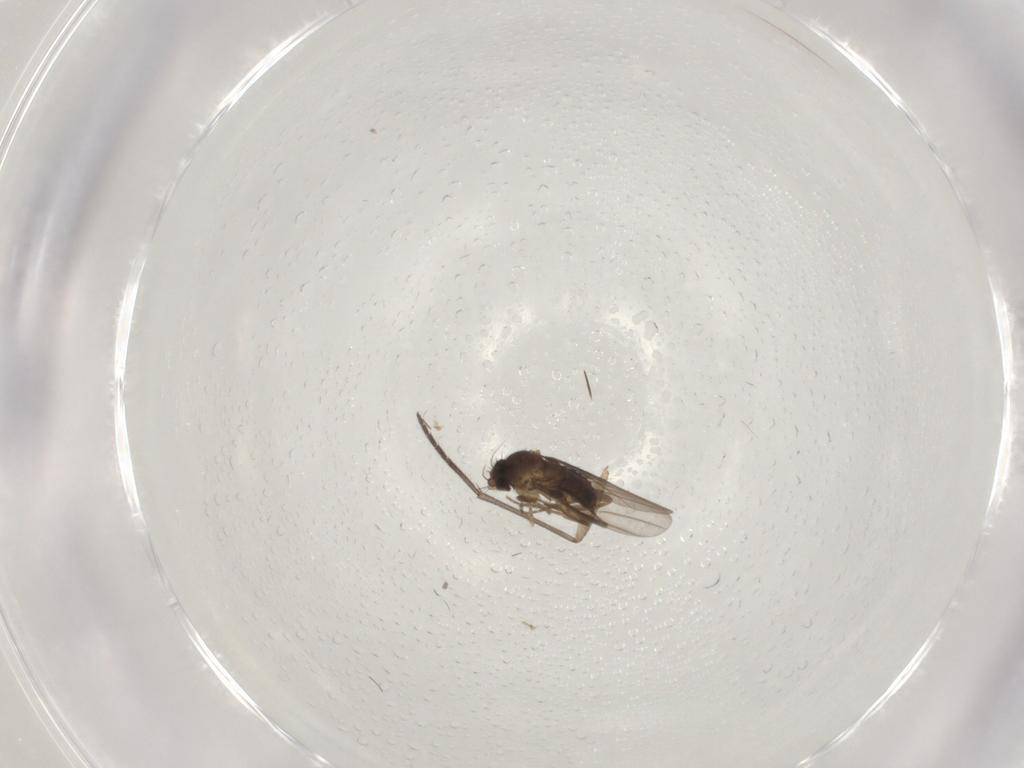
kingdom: Animalia
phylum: Arthropoda
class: Insecta
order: Diptera
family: Phoridae
